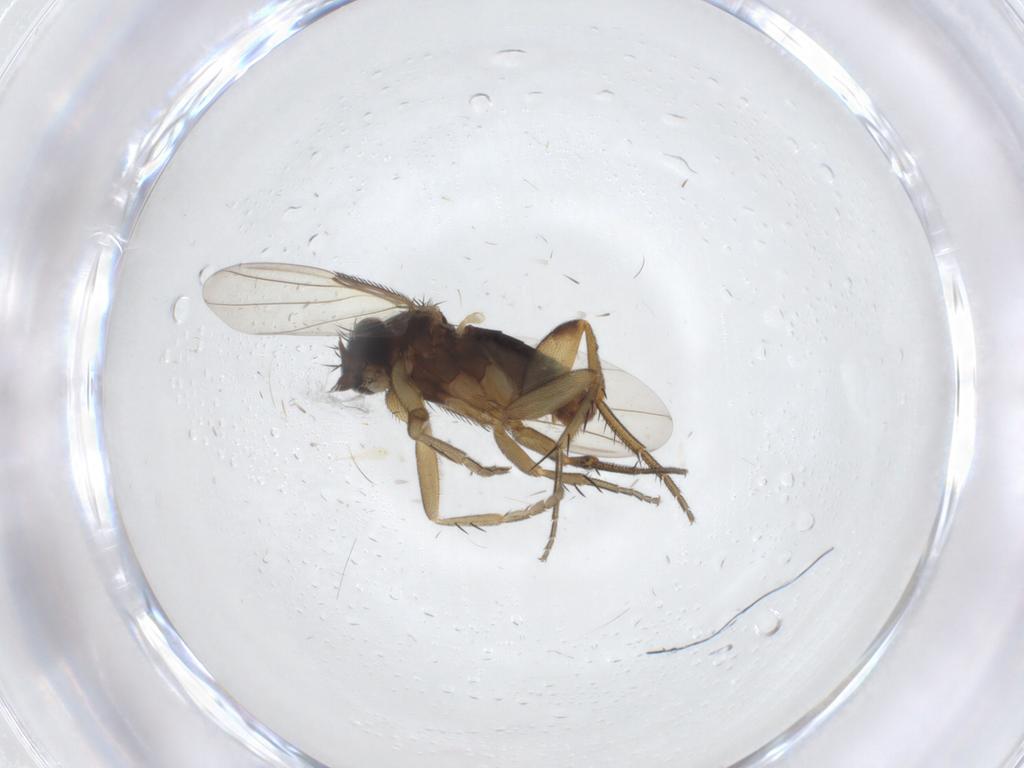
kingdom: Animalia
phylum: Arthropoda
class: Insecta
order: Diptera
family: Phoridae
